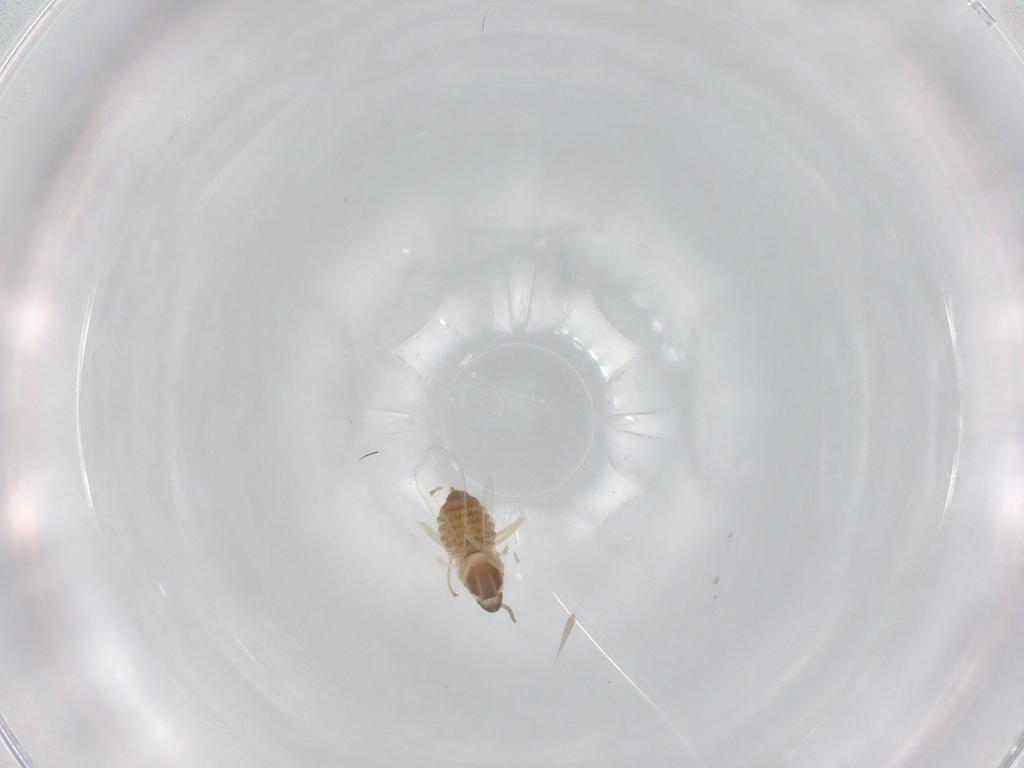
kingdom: Animalia
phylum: Arthropoda
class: Insecta
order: Diptera
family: Cecidomyiidae
